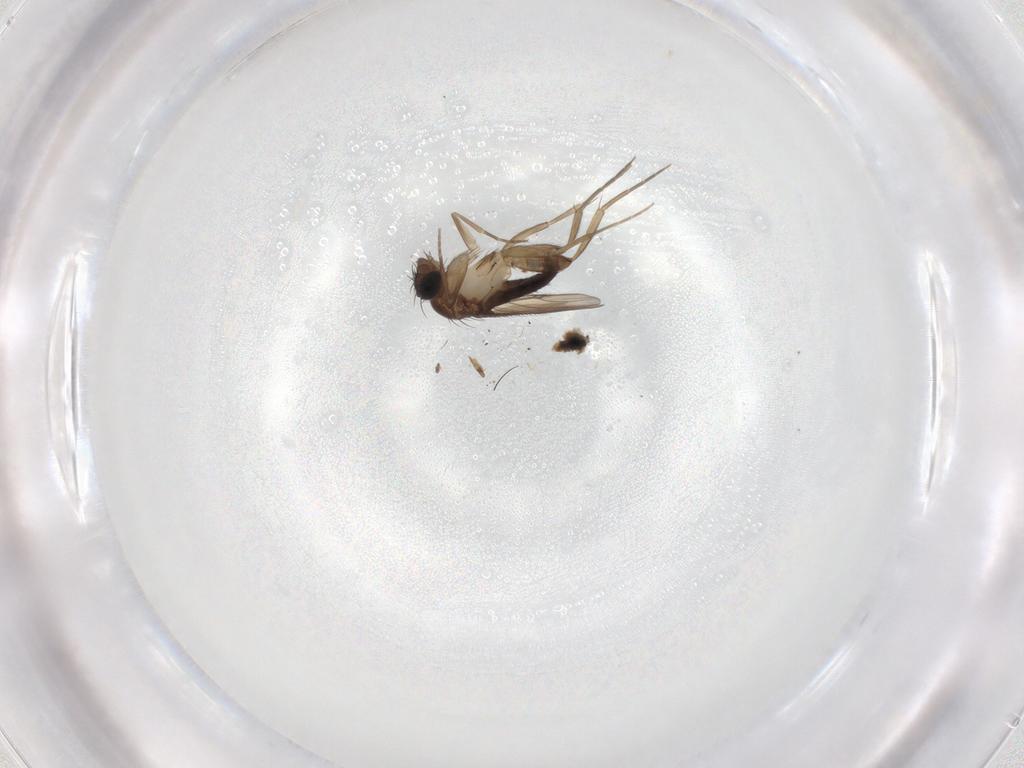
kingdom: Animalia
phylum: Arthropoda
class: Insecta
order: Diptera
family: Phoridae
